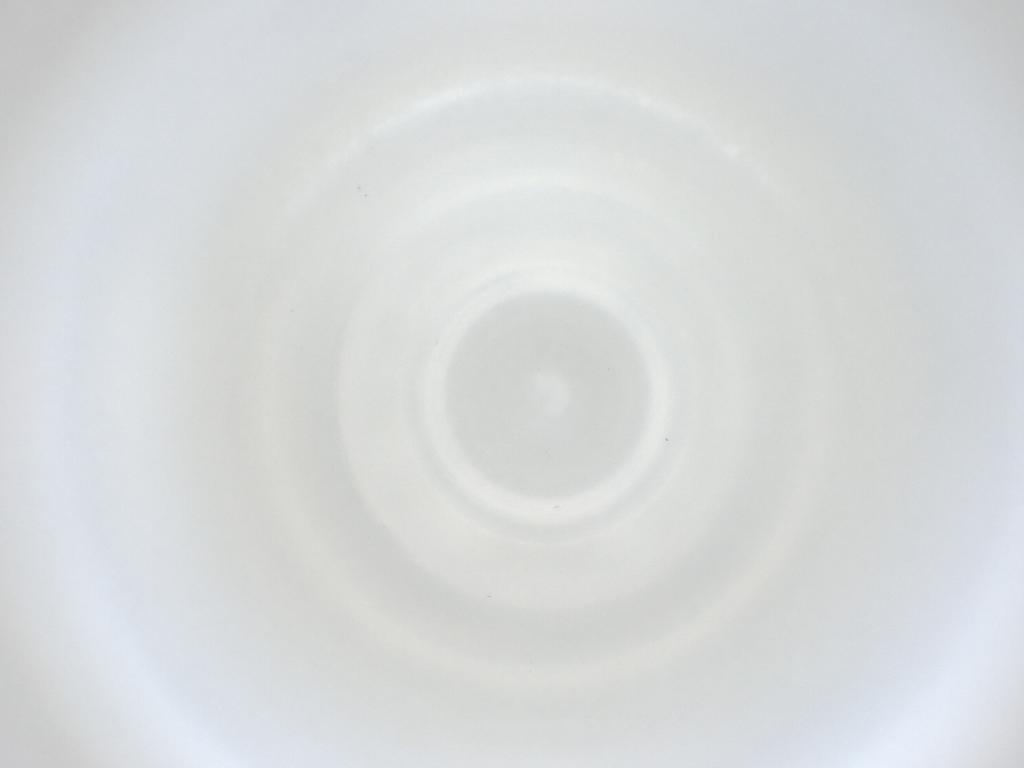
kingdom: Animalia
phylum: Arthropoda
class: Insecta
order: Diptera
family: Cecidomyiidae
